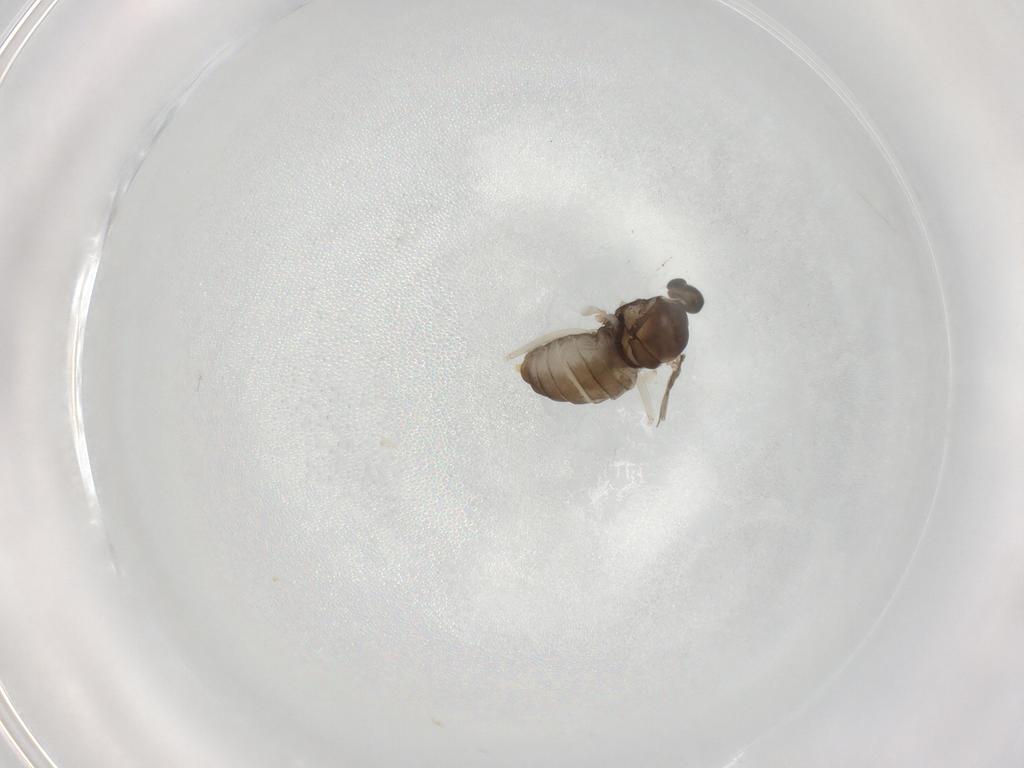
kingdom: Animalia
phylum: Arthropoda
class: Insecta
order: Diptera
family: Cecidomyiidae
